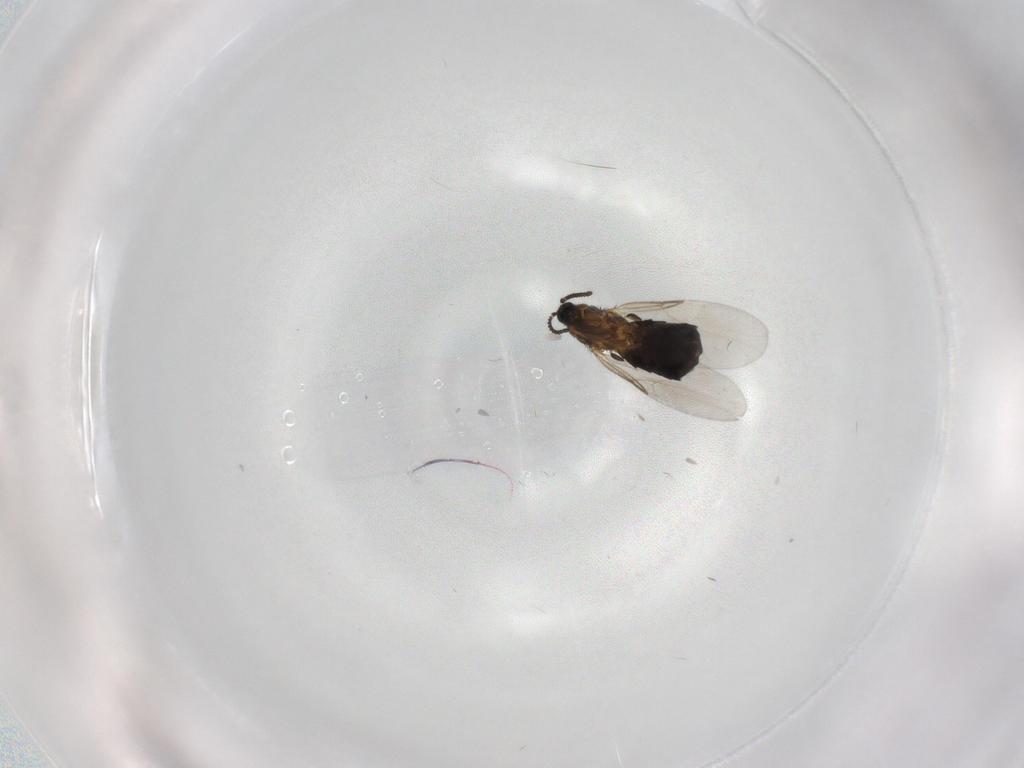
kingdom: Animalia
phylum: Arthropoda
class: Insecta
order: Diptera
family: Scatopsidae
